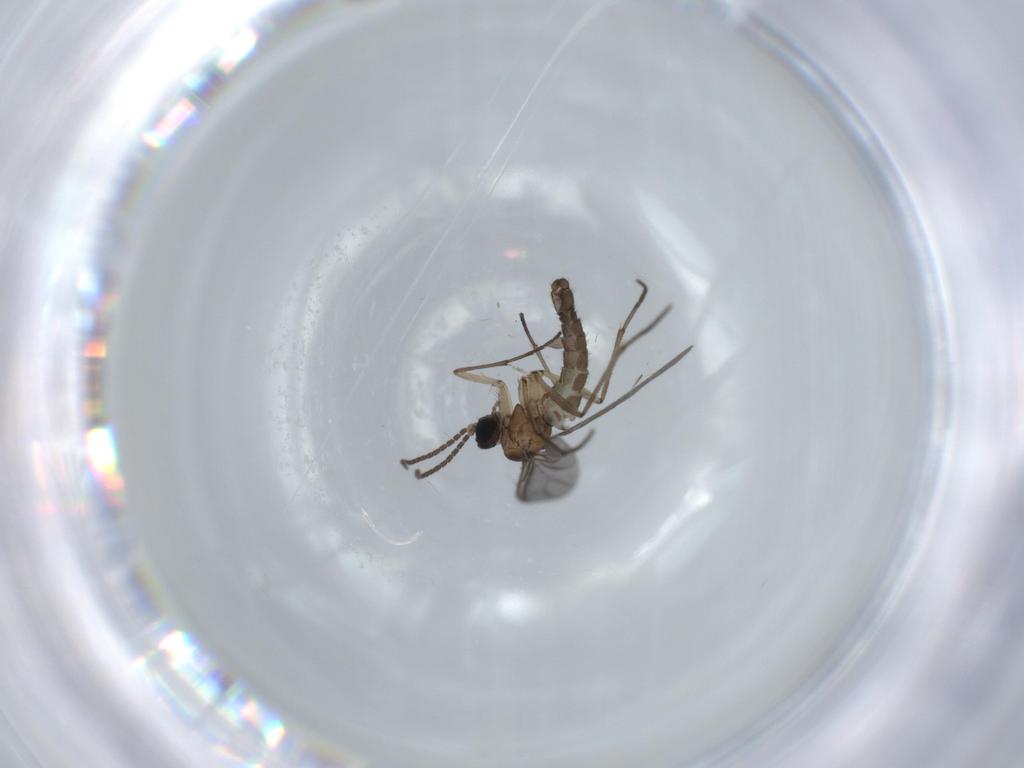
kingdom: Animalia
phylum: Arthropoda
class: Insecta
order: Diptera
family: Sciaridae
